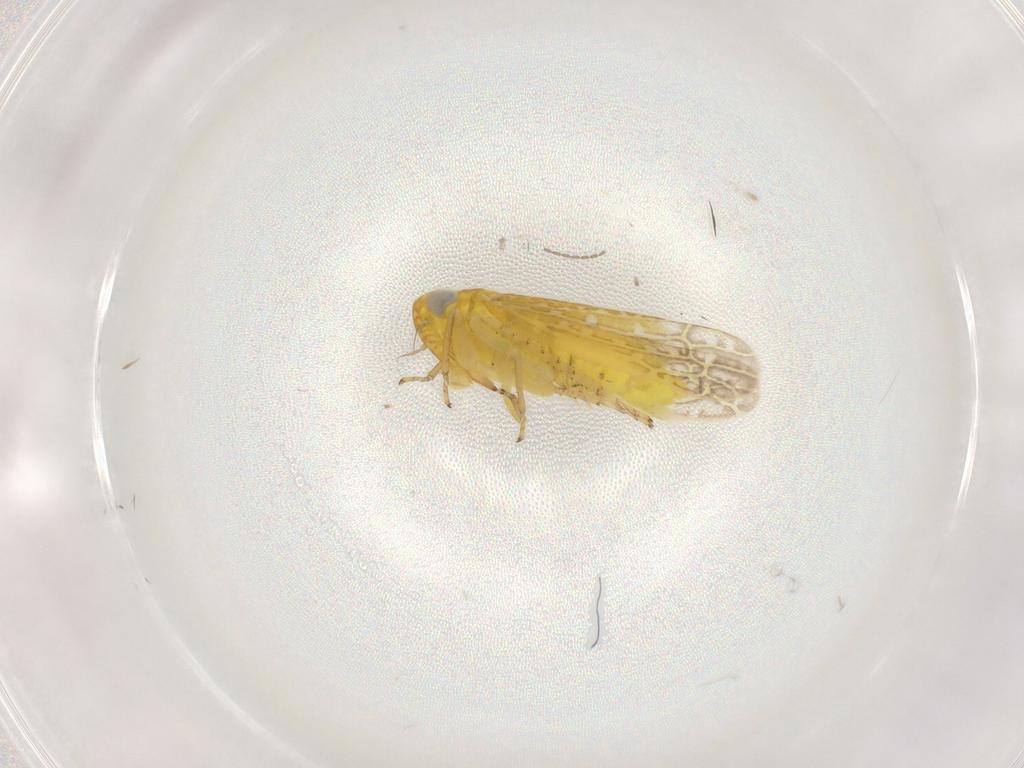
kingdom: Animalia
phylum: Arthropoda
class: Insecta
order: Hemiptera
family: Cicadellidae
